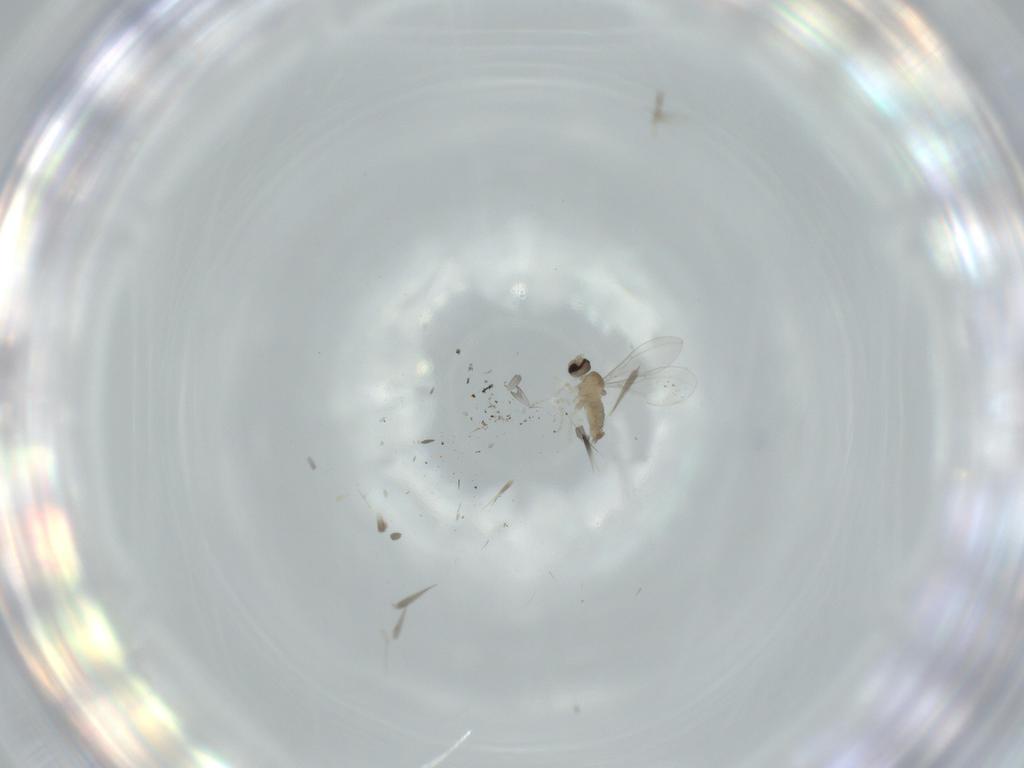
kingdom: Animalia
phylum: Arthropoda
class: Insecta
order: Diptera
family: Cecidomyiidae
